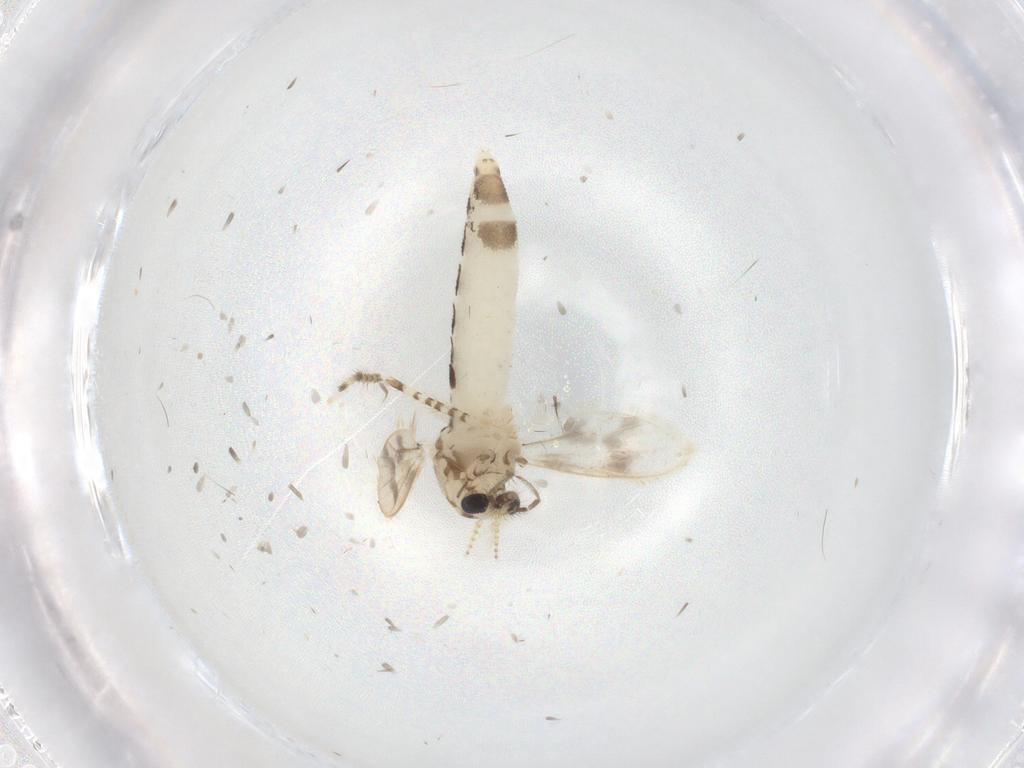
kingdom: Animalia
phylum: Arthropoda
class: Insecta
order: Diptera
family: Corethrellidae
